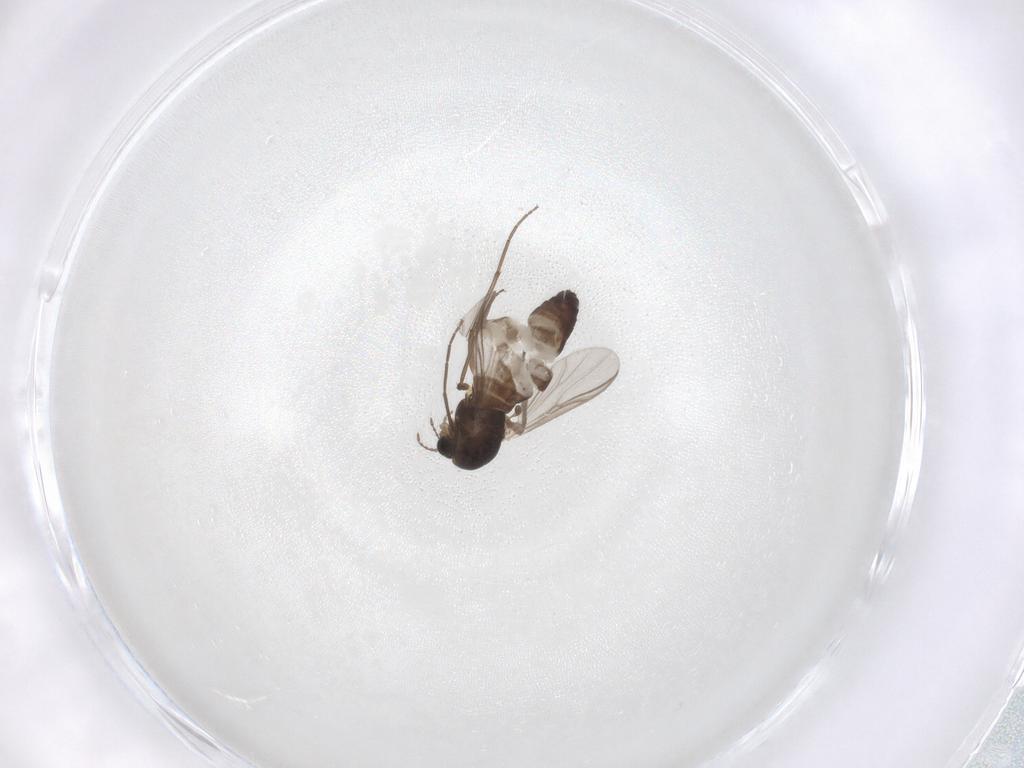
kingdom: Animalia
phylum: Arthropoda
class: Insecta
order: Diptera
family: Chironomidae
